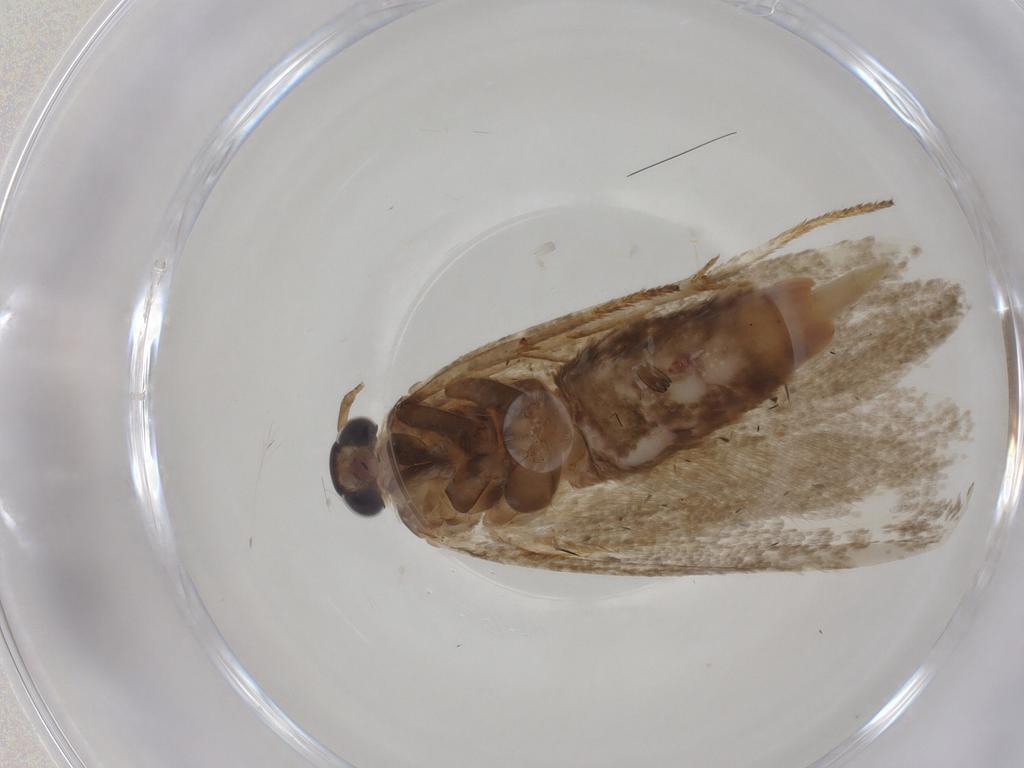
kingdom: Animalia
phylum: Arthropoda
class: Insecta
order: Lepidoptera
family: Blastobasidae
